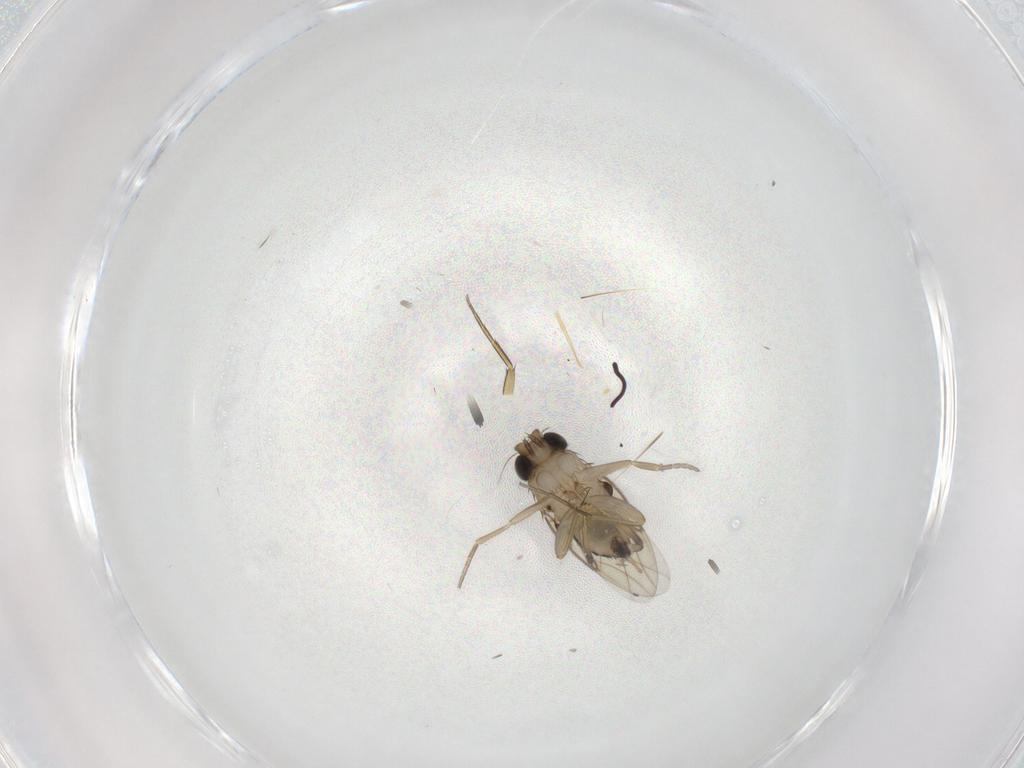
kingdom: Animalia
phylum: Arthropoda
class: Insecta
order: Diptera
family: Phoridae
